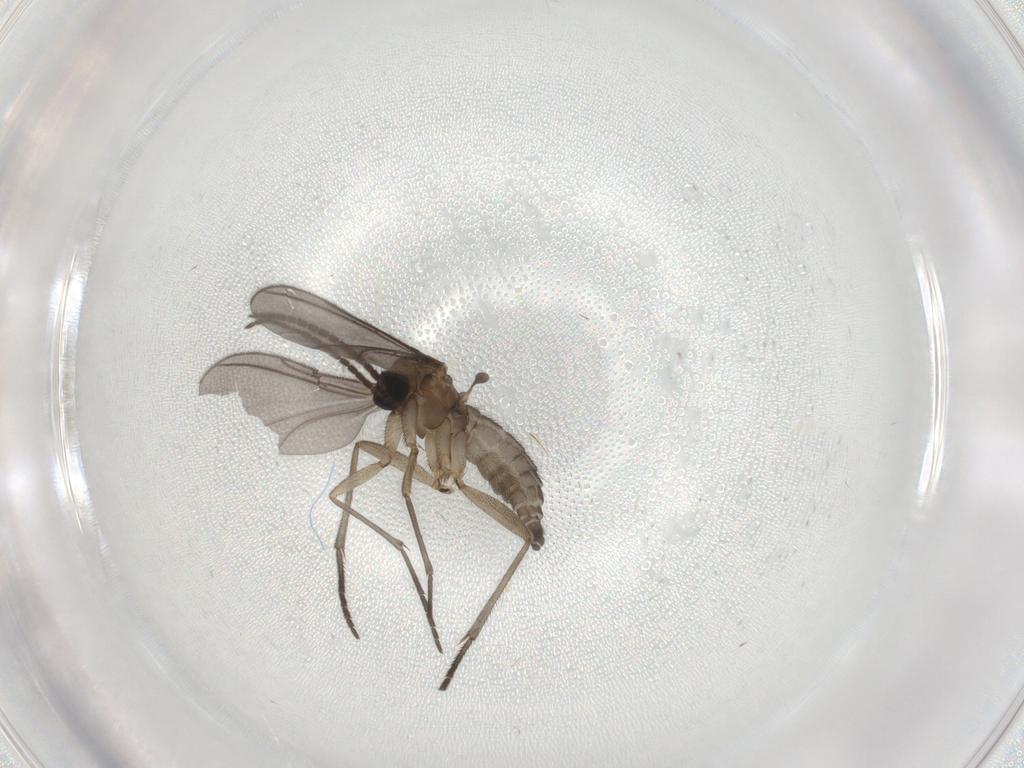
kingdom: Animalia
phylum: Arthropoda
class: Insecta
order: Diptera
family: Sciaridae
